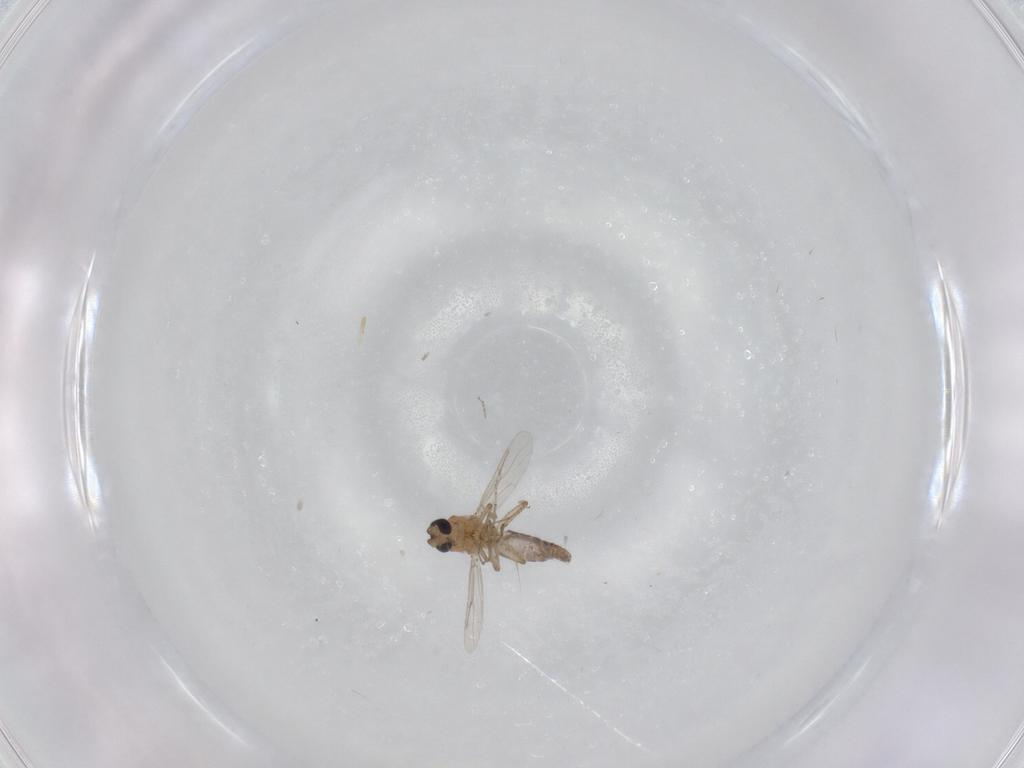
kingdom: Animalia
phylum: Arthropoda
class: Insecta
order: Diptera
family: Ceratopogonidae
